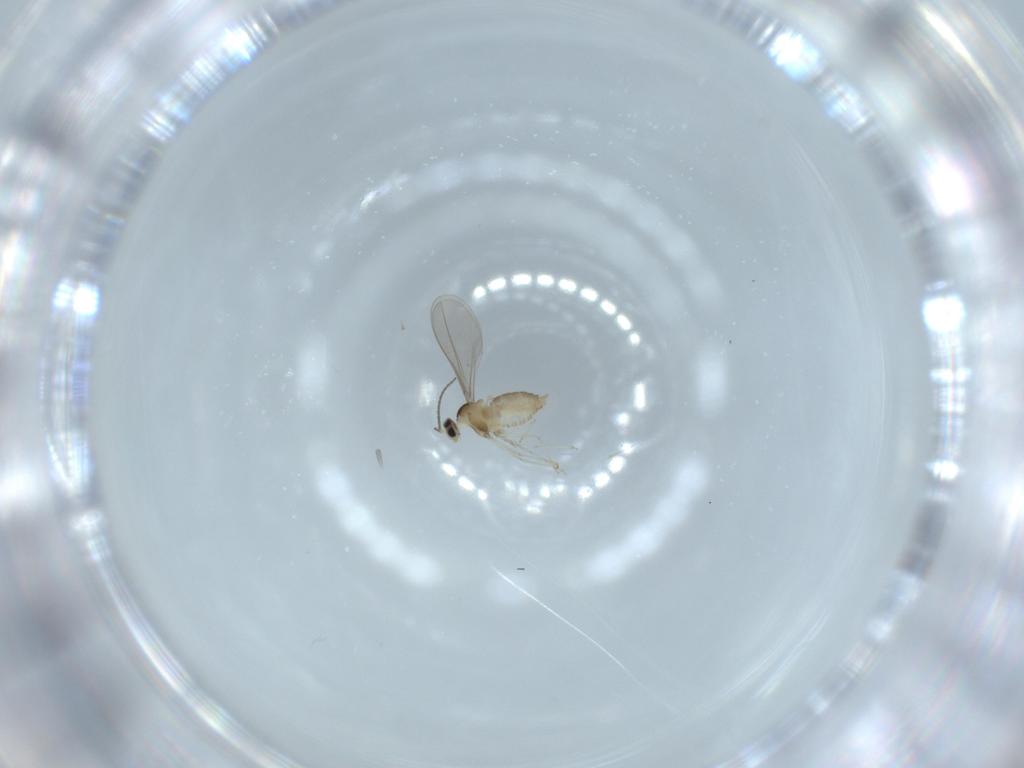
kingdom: Animalia
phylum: Arthropoda
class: Insecta
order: Diptera
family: Cecidomyiidae
